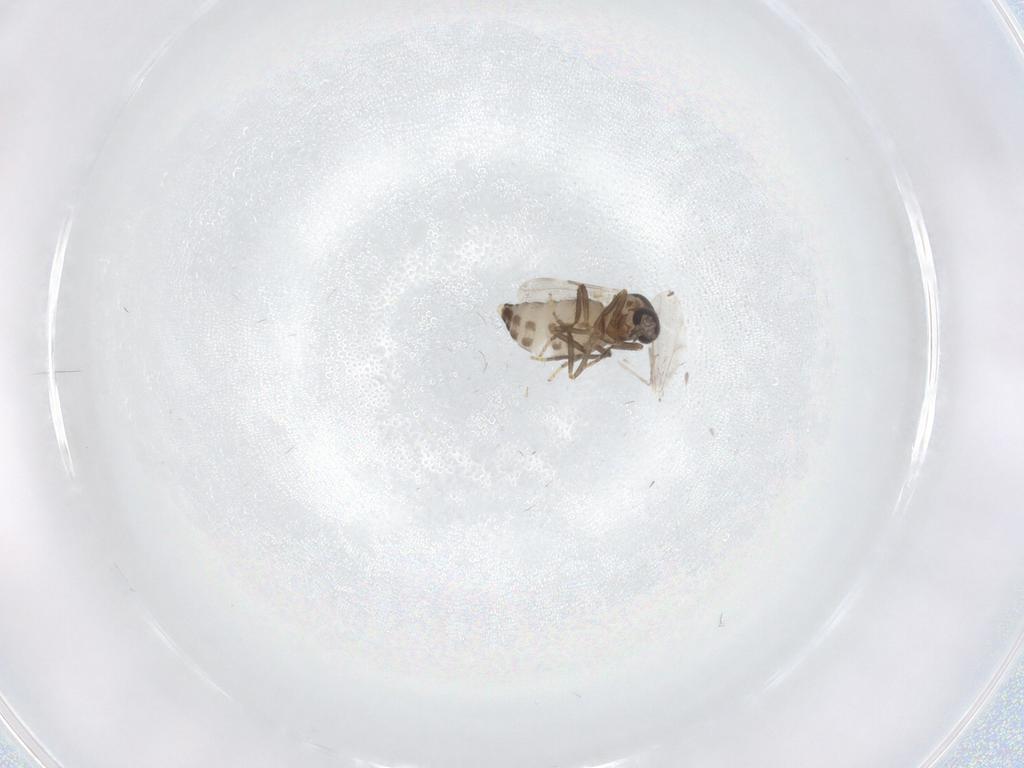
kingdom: Animalia
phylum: Arthropoda
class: Insecta
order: Diptera
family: Ceratopogonidae
